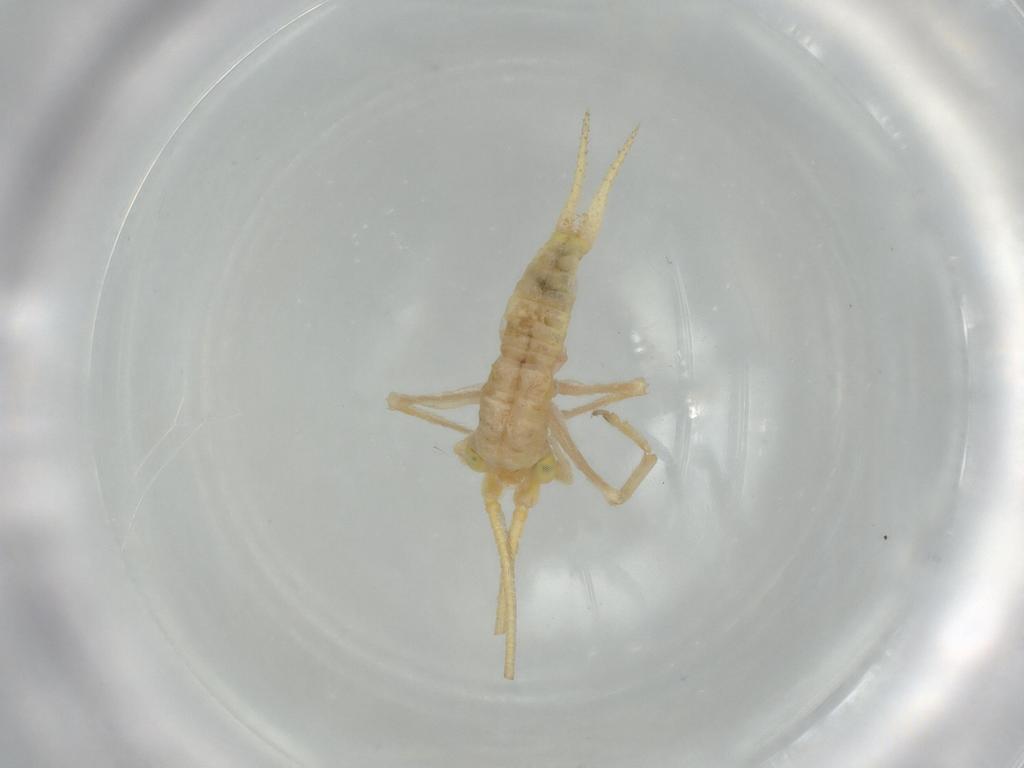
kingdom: Animalia
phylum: Arthropoda
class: Insecta
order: Orthoptera
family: Trigonidiidae
